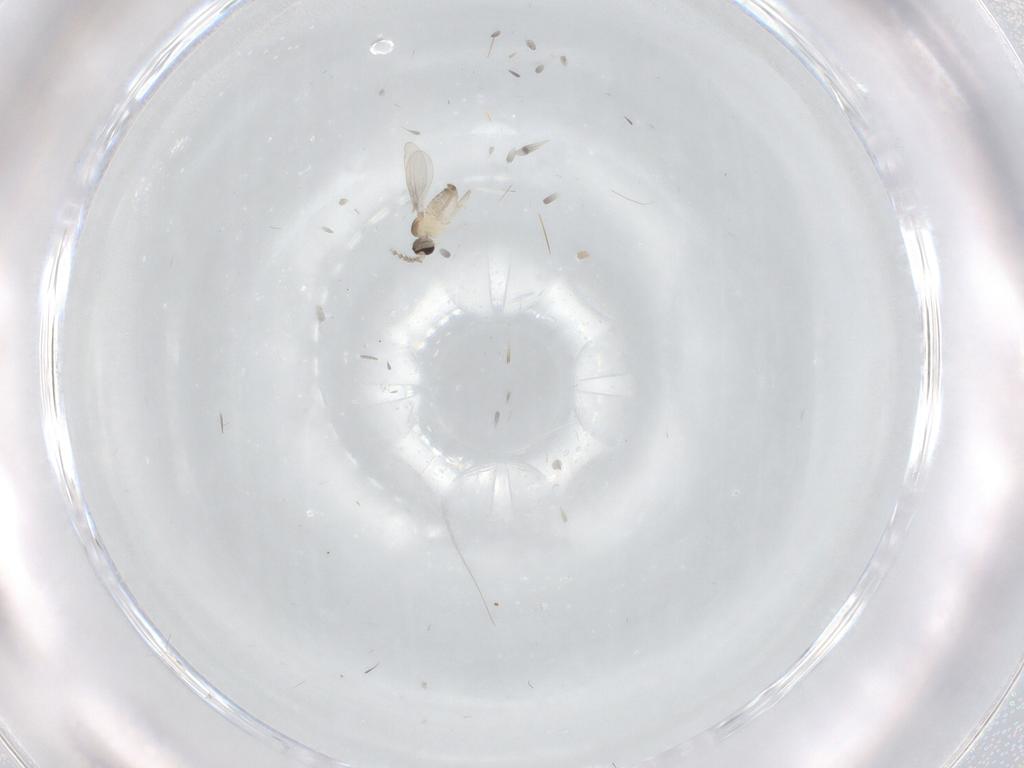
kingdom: Animalia
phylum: Arthropoda
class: Insecta
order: Diptera
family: Cecidomyiidae
